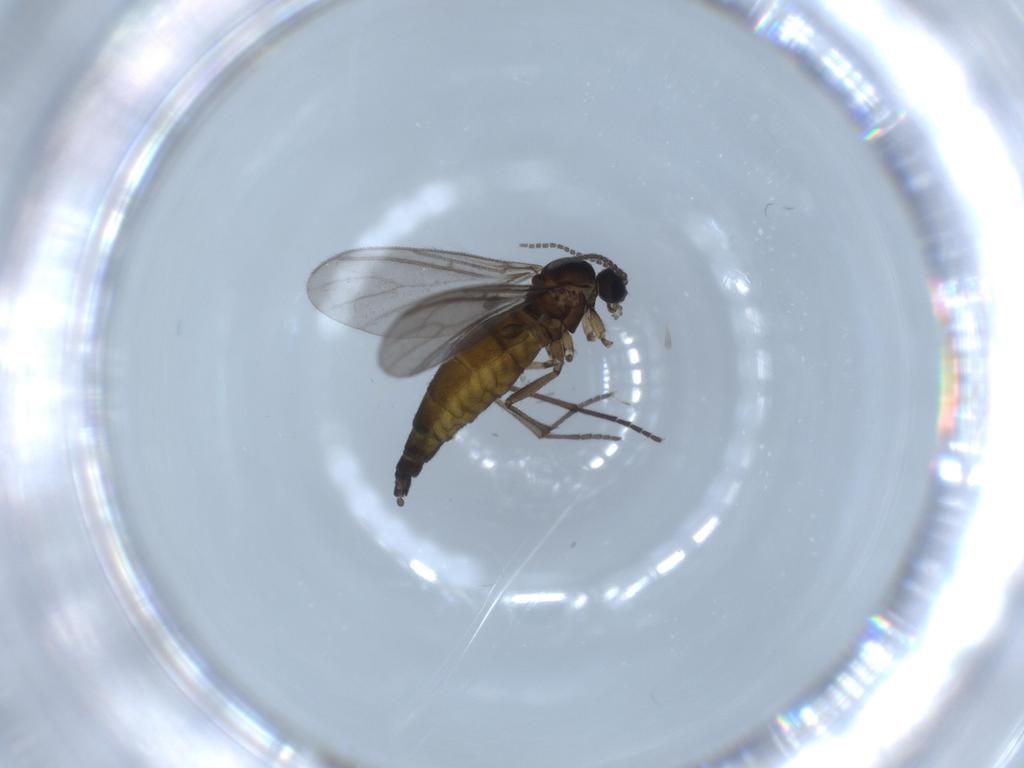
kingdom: Animalia
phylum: Arthropoda
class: Insecta
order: Diptera
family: Sciaridae
